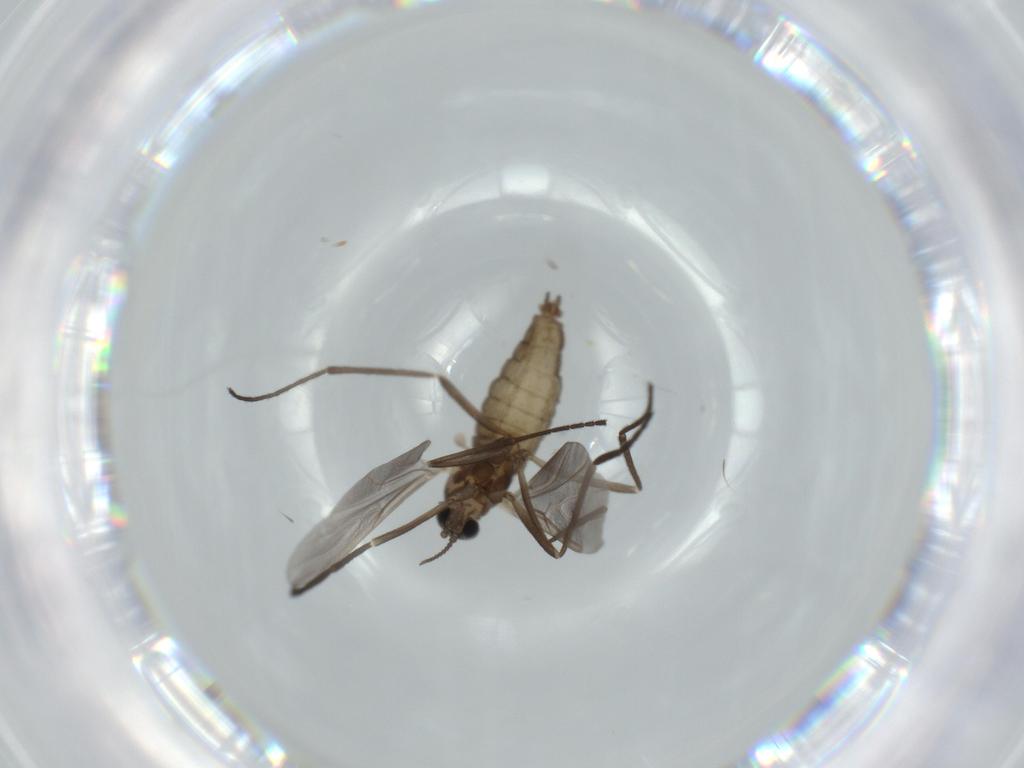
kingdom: Animalia
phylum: Arthropoda
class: Insecta
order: Diptera
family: Cecidomyiidae
